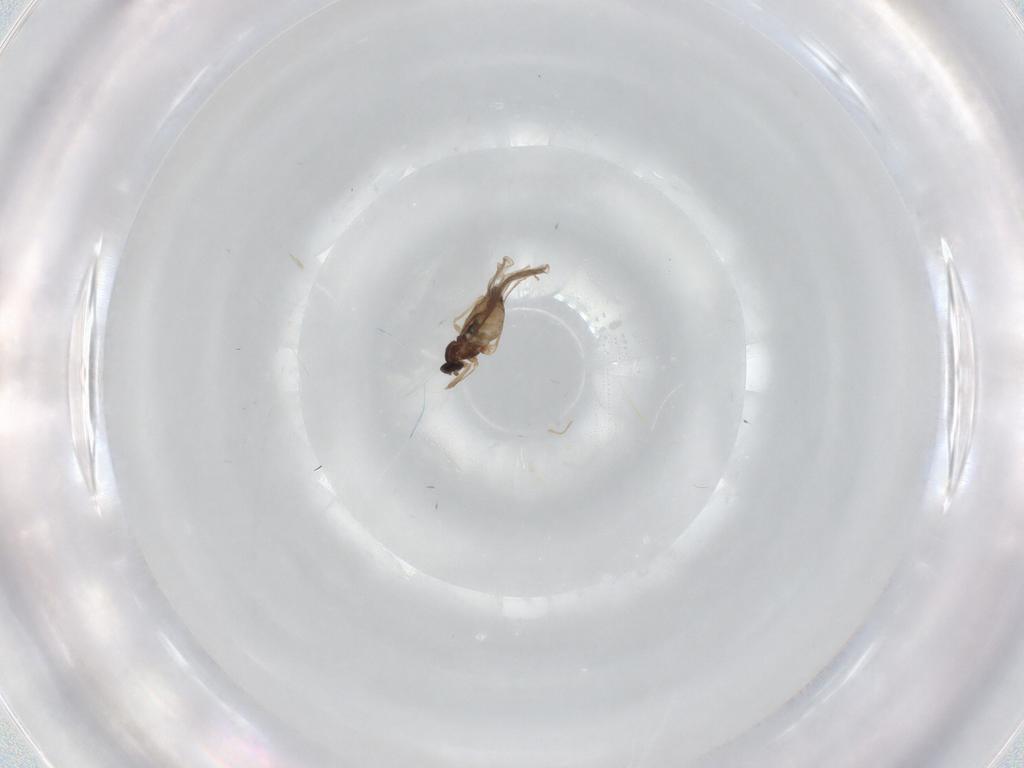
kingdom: Animalia
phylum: Arthropoda
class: Insecta
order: Diptera
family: Cecidomyiidae
